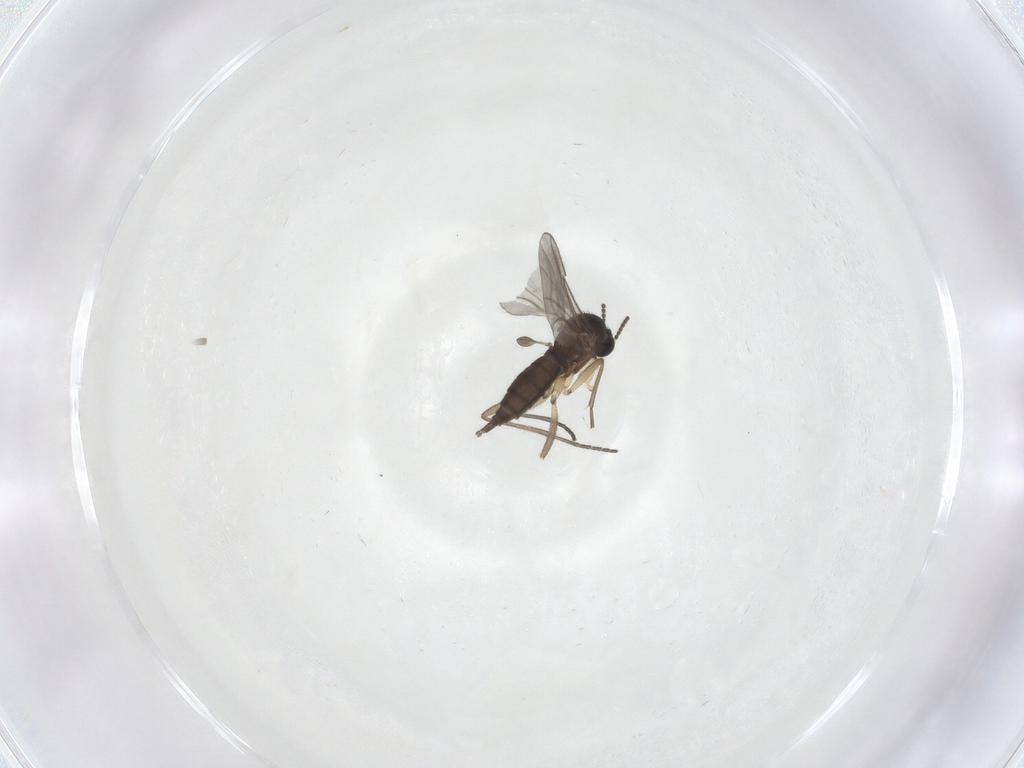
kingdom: Animalia
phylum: Arthropoda
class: Insecta
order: Diptera
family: Sciaridae
